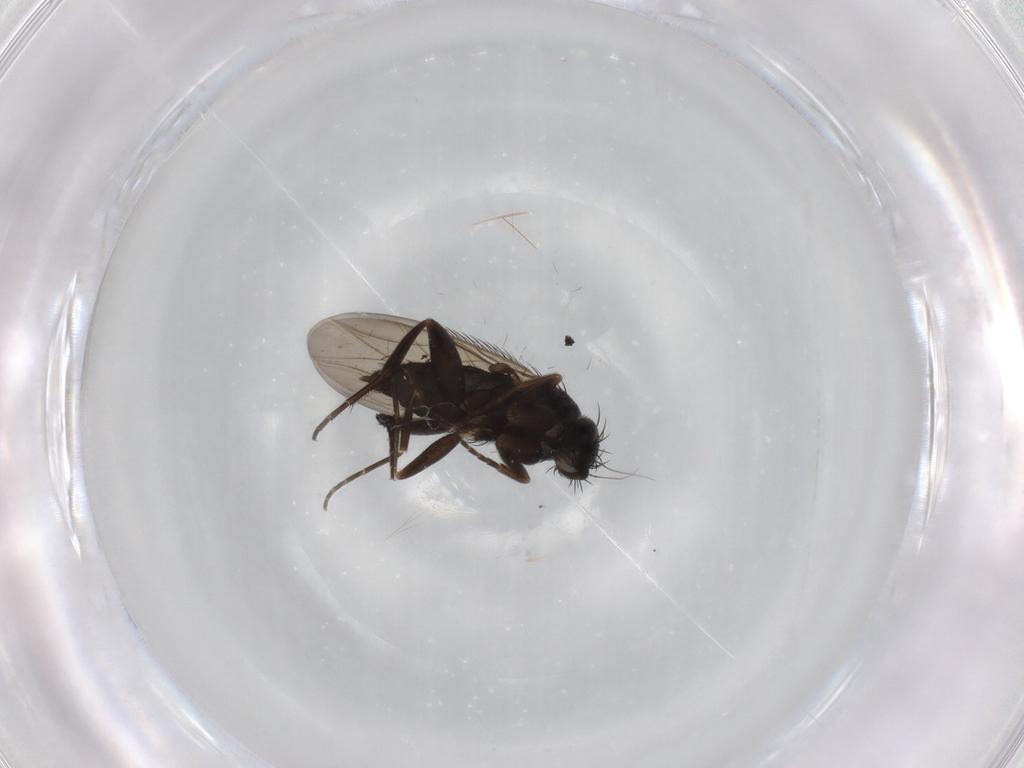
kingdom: Animalia
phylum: Arthropoda
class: Insecta
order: Diptera
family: Phoridae
